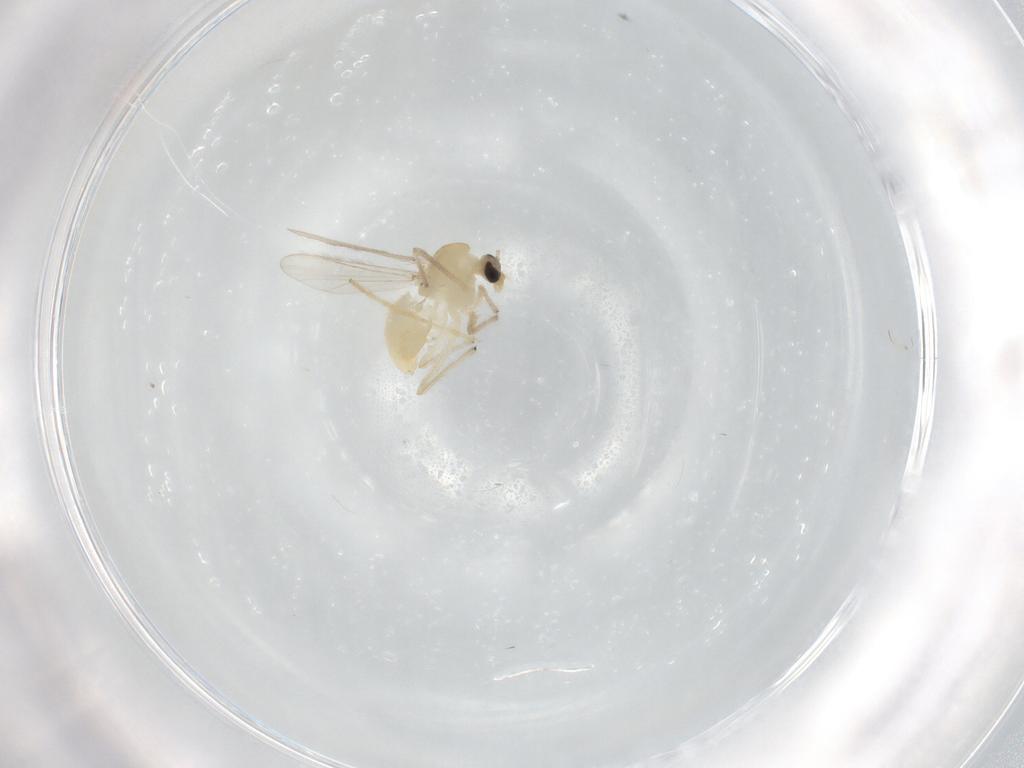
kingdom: Animalia
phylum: Arthropoda
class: Insecta
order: Diptera
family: Chironomidae
